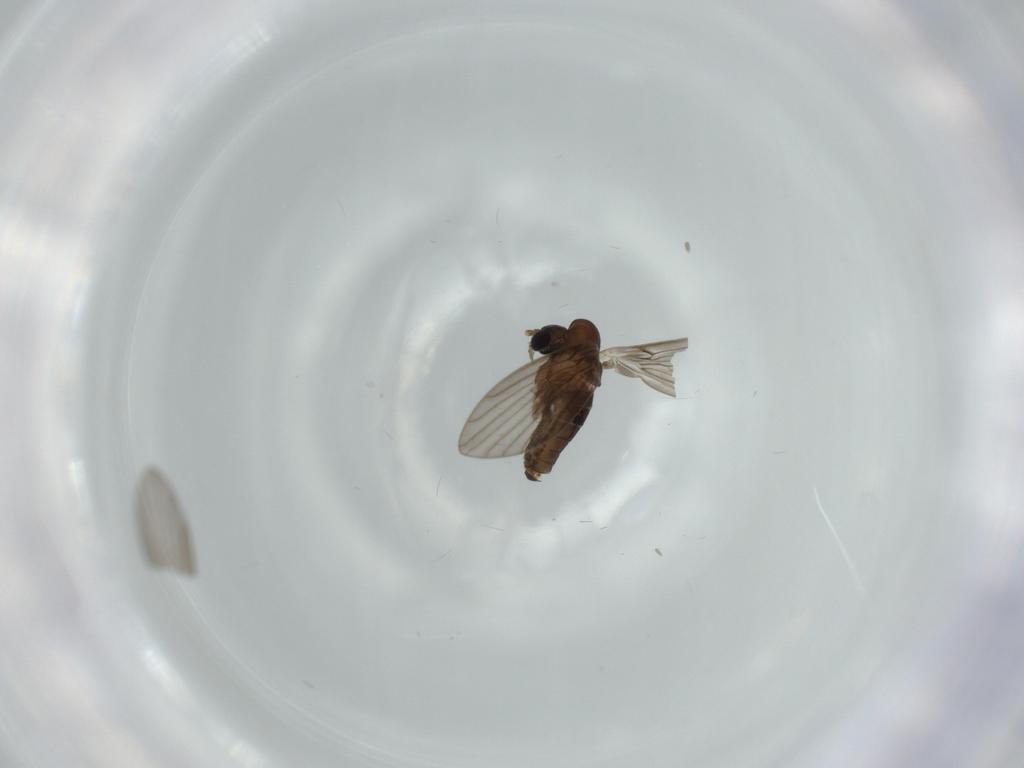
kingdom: Animalia
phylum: Arthropoda
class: Insecta
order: Diptera
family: Psychodidae
